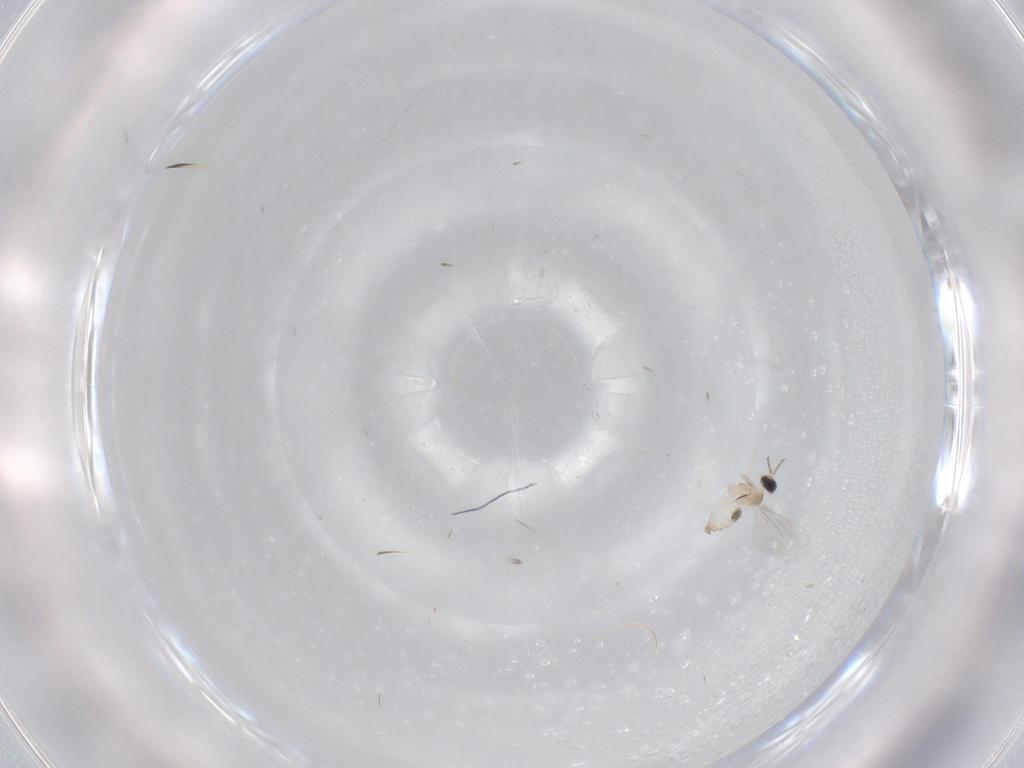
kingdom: Animalia
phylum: Arthropoda
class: Insecta
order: Diptera
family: Cecidomyiidae
